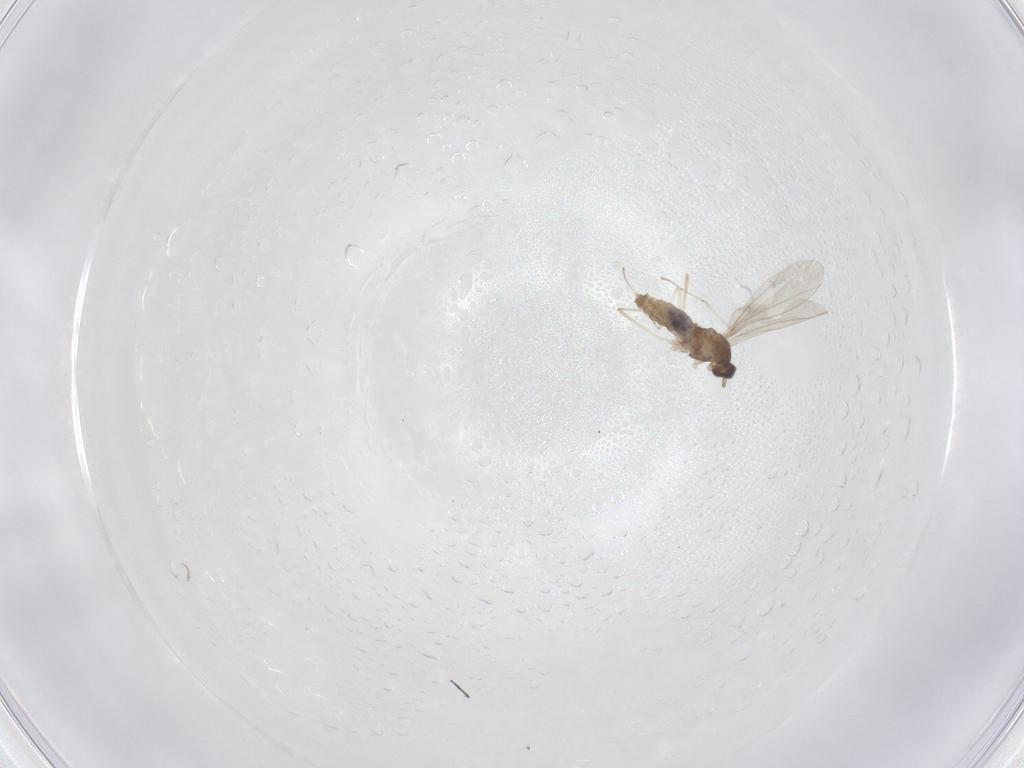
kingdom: Animalia
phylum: Arthropoda
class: Insecta
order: Diptera
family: Cecidomyiidae
